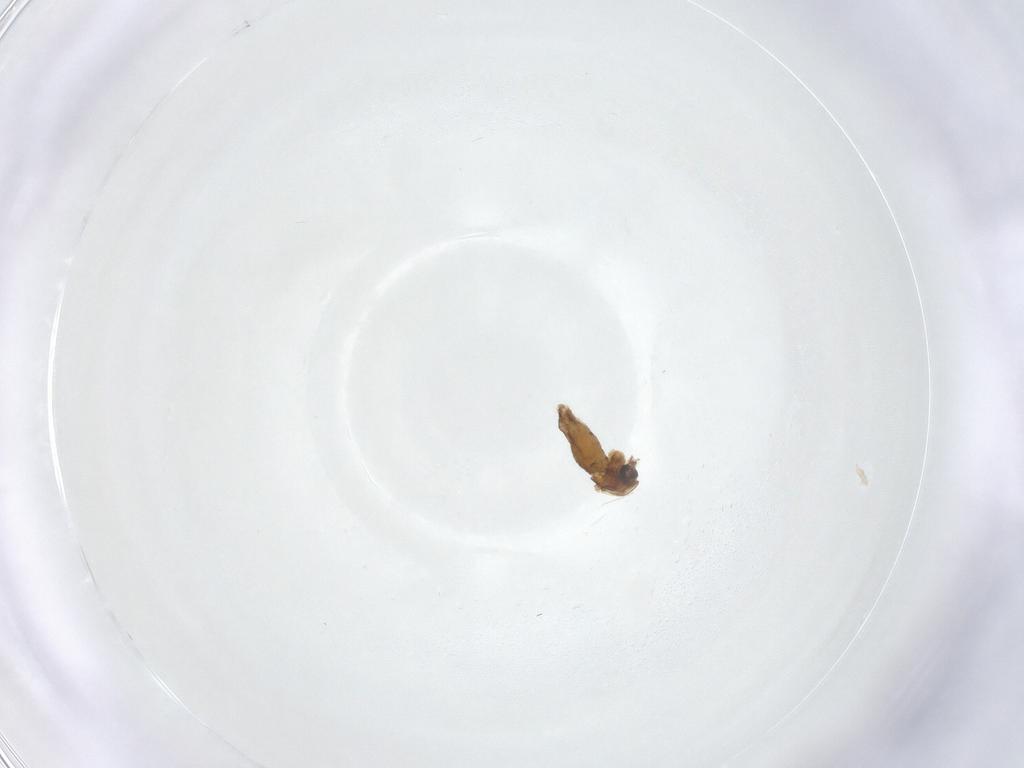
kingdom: Animalia
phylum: Arthropoda
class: Insecta
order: Diptera
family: Chironomidae
